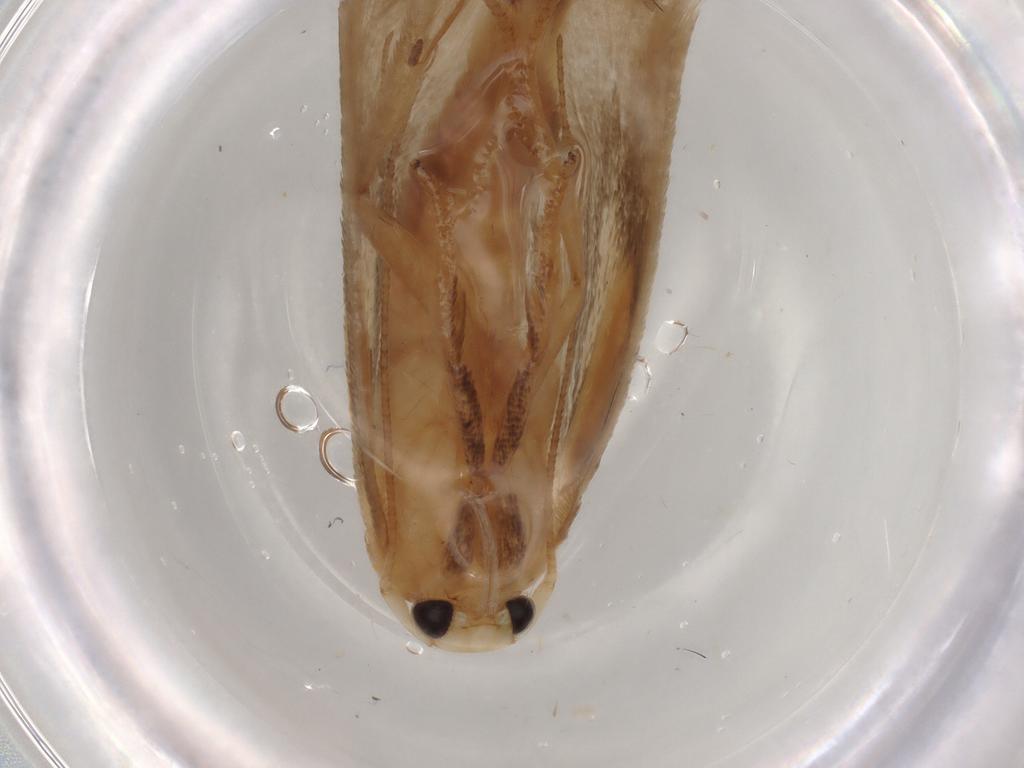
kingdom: Animalia
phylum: Arthropoda
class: Insecta
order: Lepidoptera
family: Geometridae
